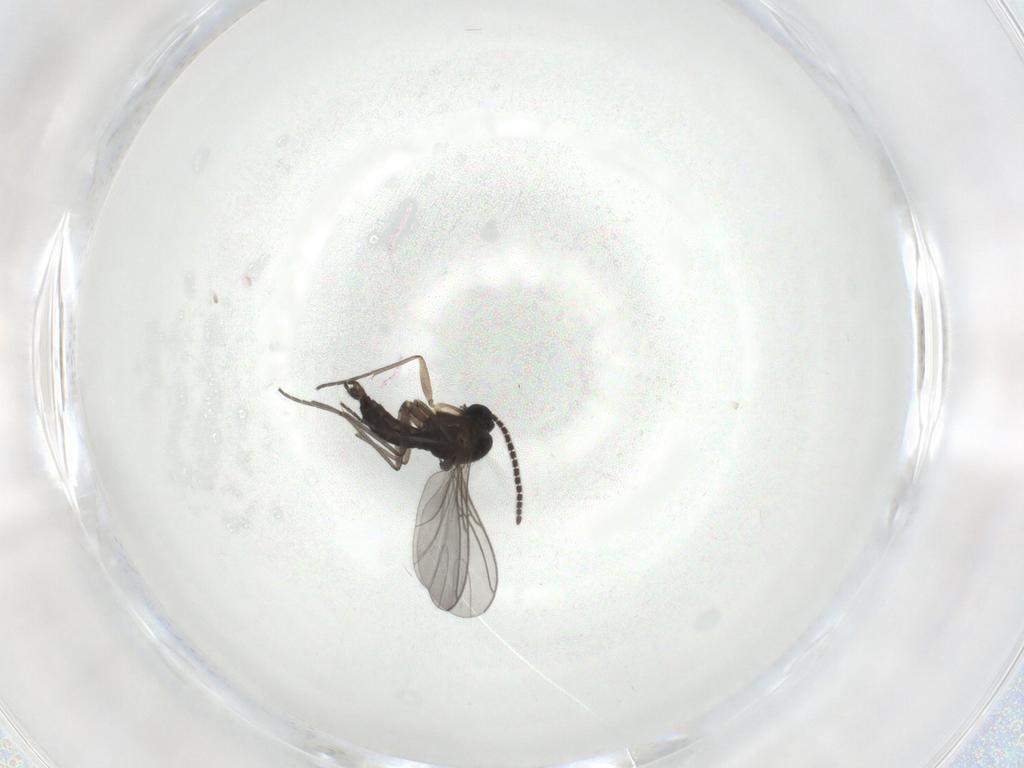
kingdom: Animalia
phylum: Arthropoda
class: Insecta
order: Diptera
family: Sciaridae
